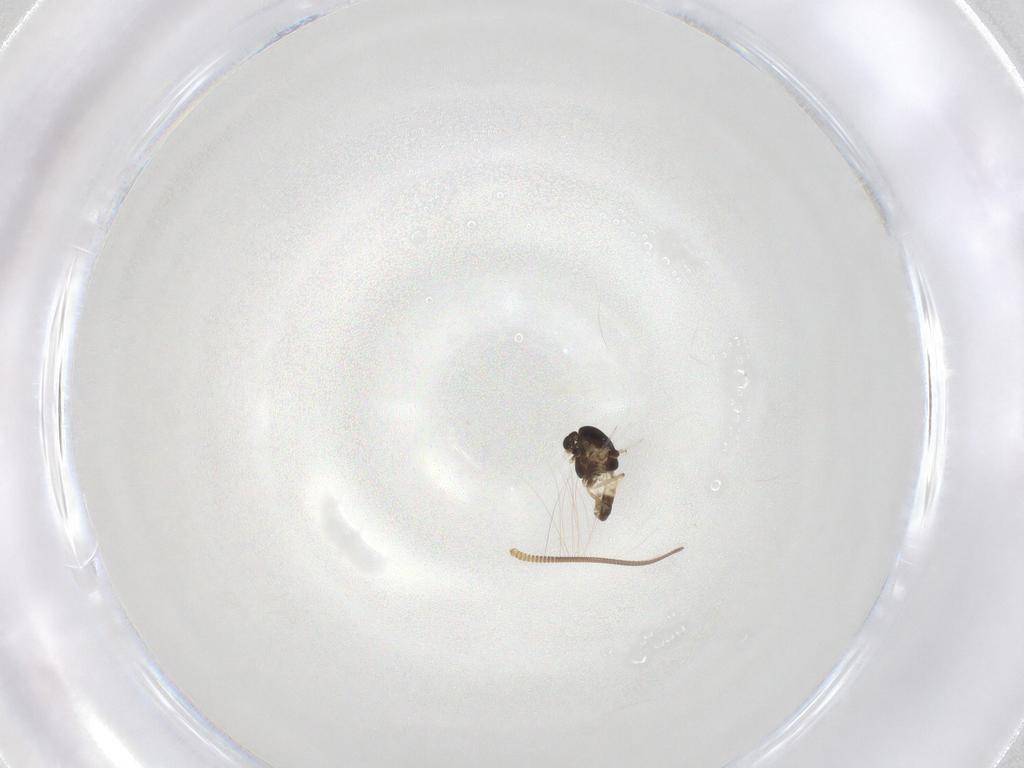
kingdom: Animalia
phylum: Arthropoda
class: Insecta
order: Diptera
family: Chironomidae
